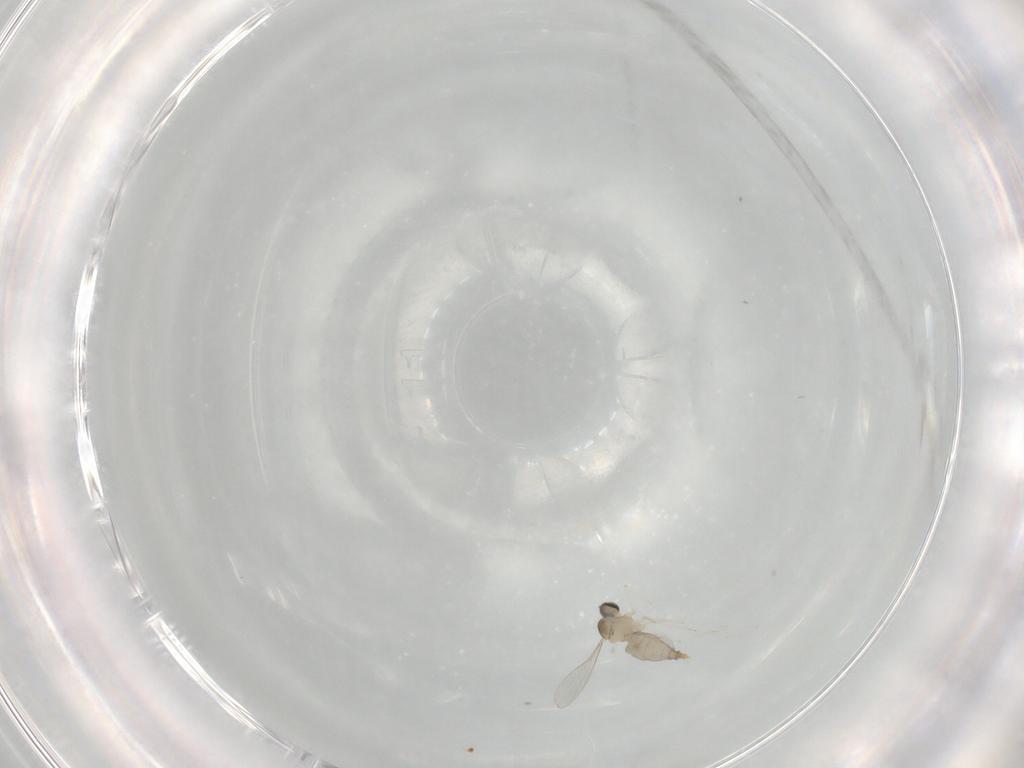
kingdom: Animalia
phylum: Arthropoda
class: Insecta
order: Diptera
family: Cecidomyiidae
